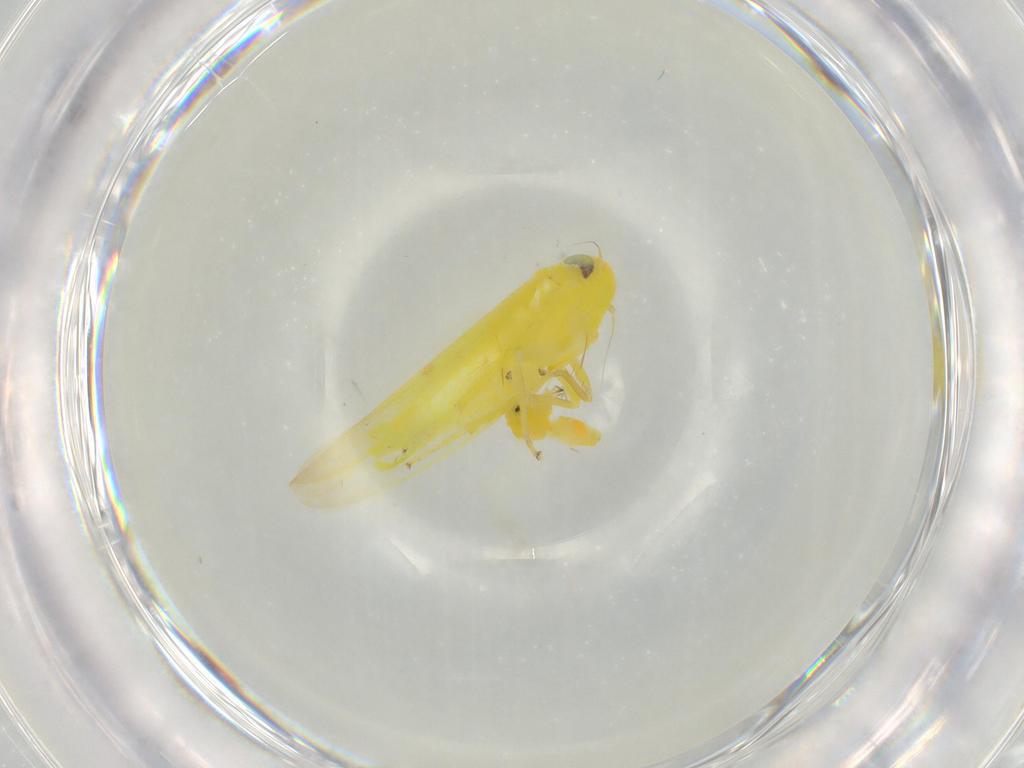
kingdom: Animalia
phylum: Arthropoda
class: Insecta
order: Hemiptera
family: Cicadellidae
